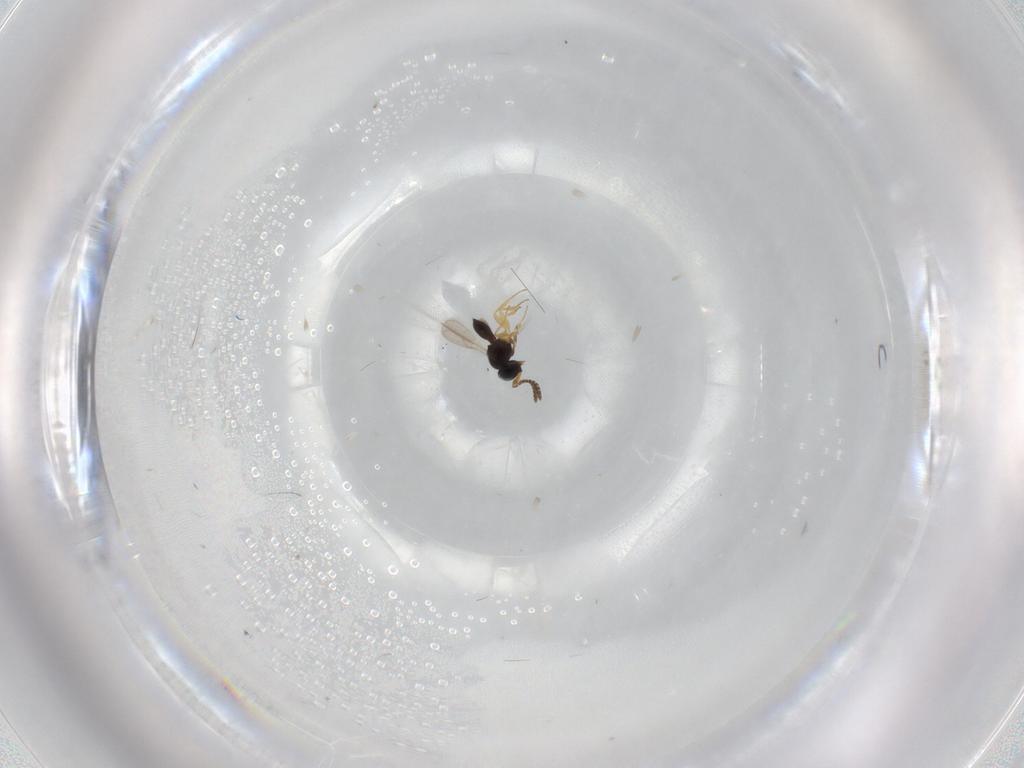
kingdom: Animalia
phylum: Arthropoda
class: Insecta
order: Hymenoptera
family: Scelionidae
